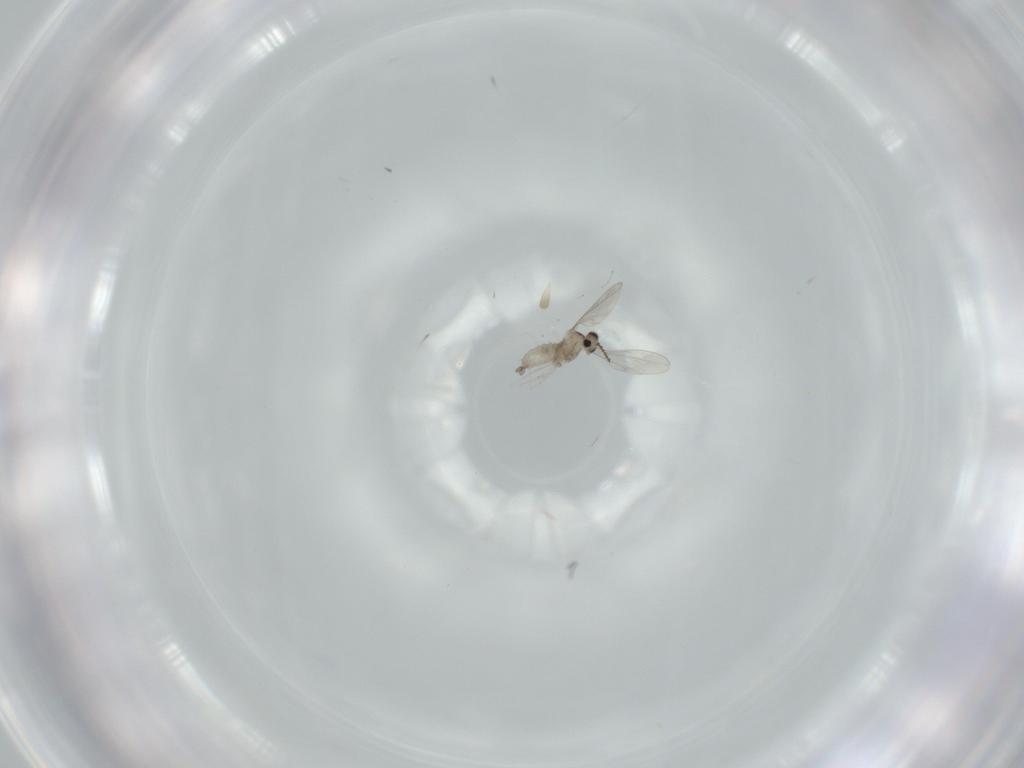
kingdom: Animalia
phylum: Arthropoda
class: Insecta
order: Diptera
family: Cecidomyiidae
